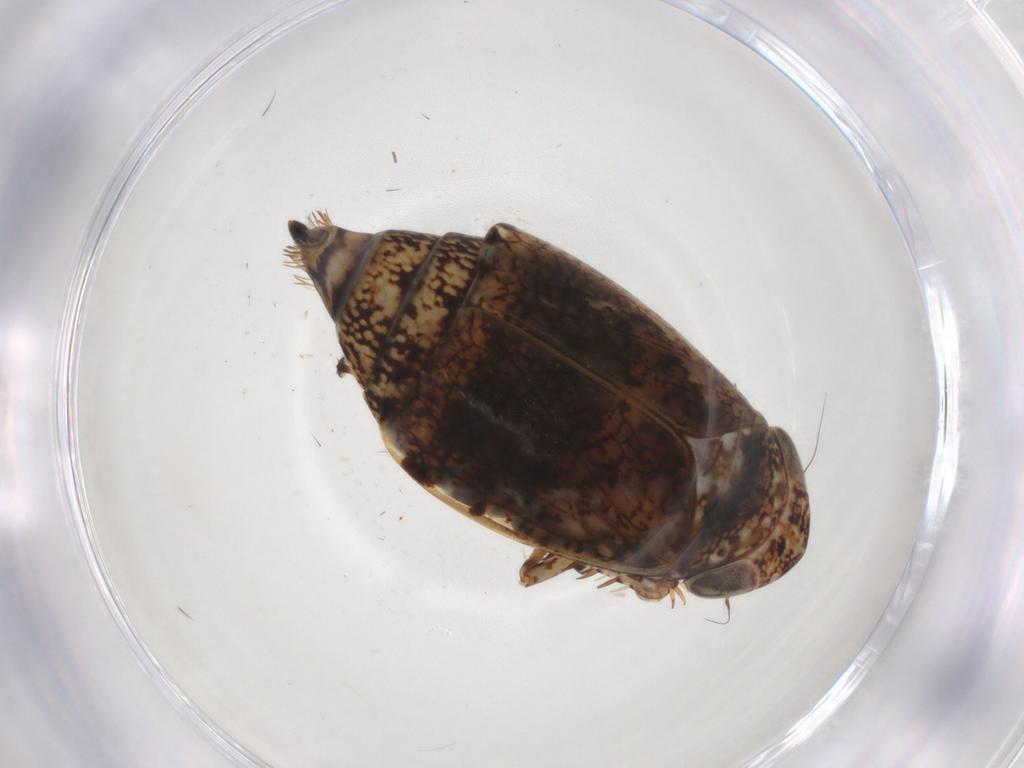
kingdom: Animalia
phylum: Arthropoda
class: Insecta
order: Hemiptera
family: Cicadellidae
